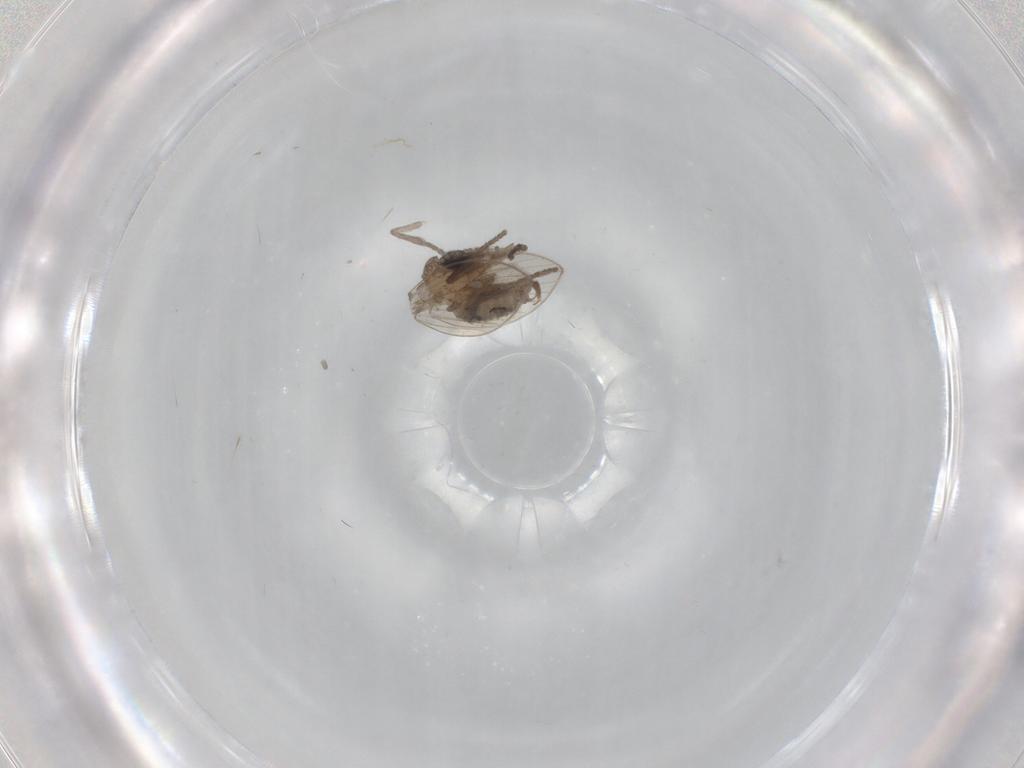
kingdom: Animalia
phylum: Arthropoda
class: Insecta
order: Diptera
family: Psychodidae
